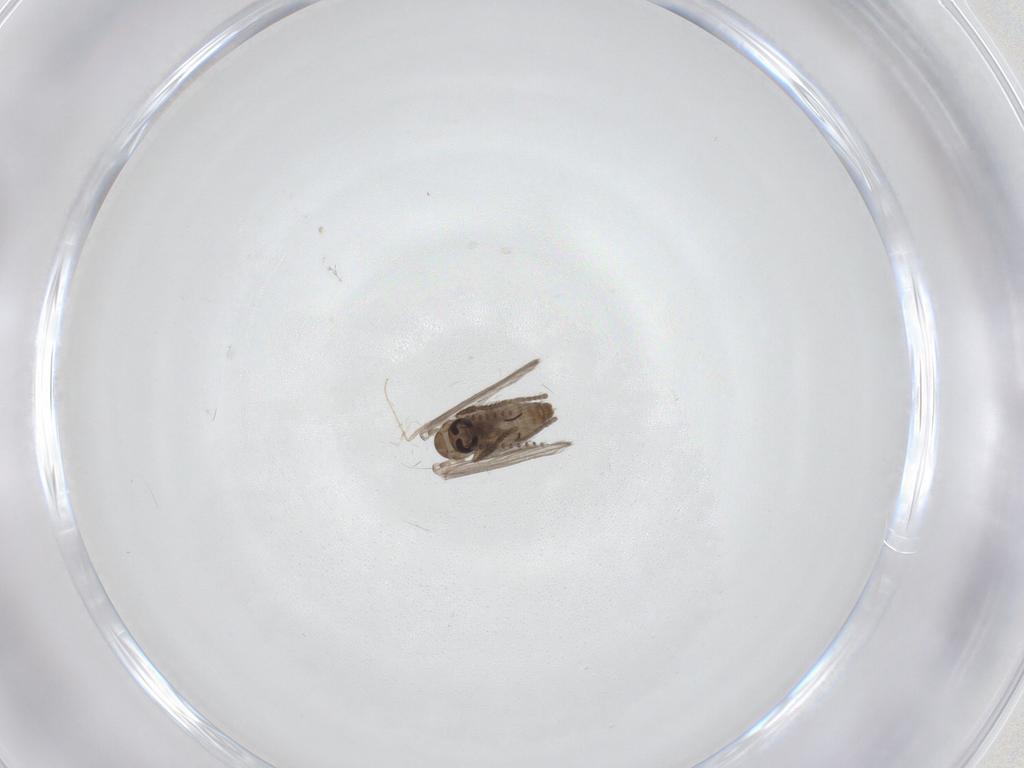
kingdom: Animalia
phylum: Arthropoda
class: Insecta
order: Diptera
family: Psychodidae
